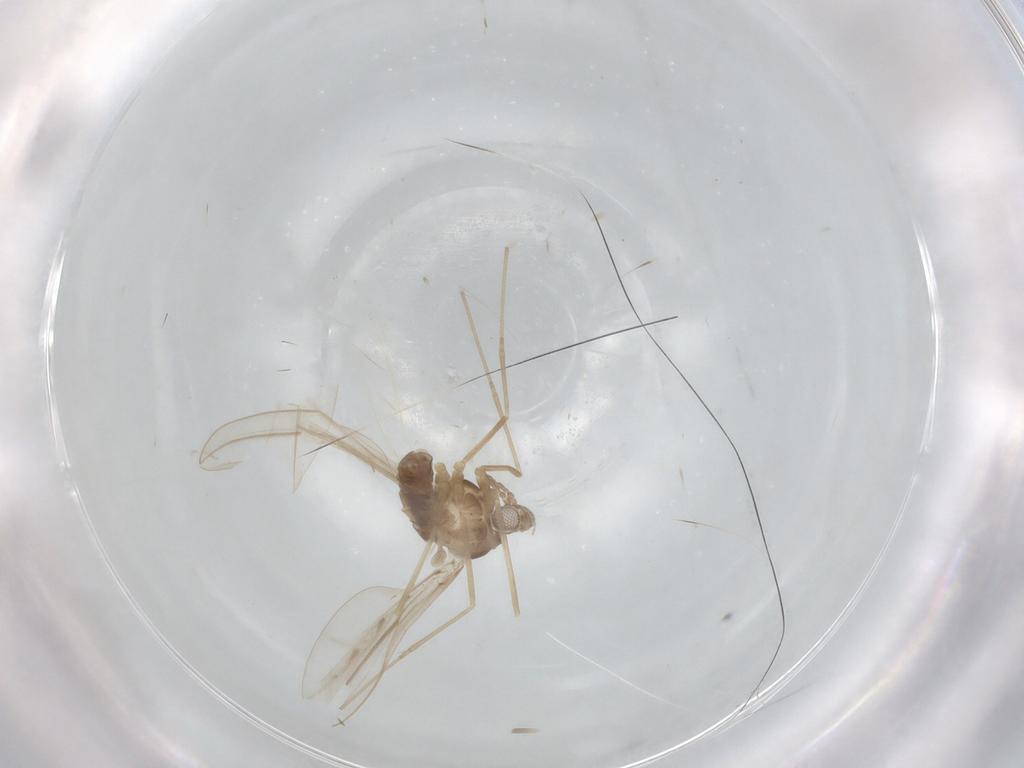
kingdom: Animalia
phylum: Arthropoda
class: Insecta
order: Diptera
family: Cecidomyiidae
